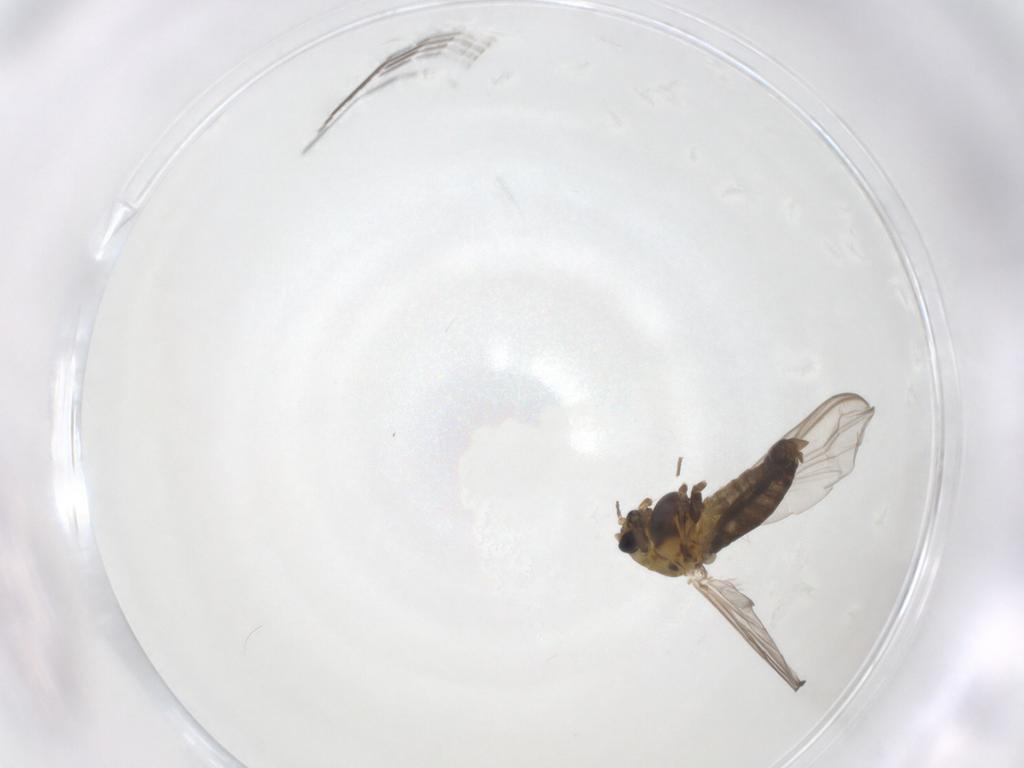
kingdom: Animalia
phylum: Arthropoda
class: Insecta
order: Diptera
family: Chironomidae
